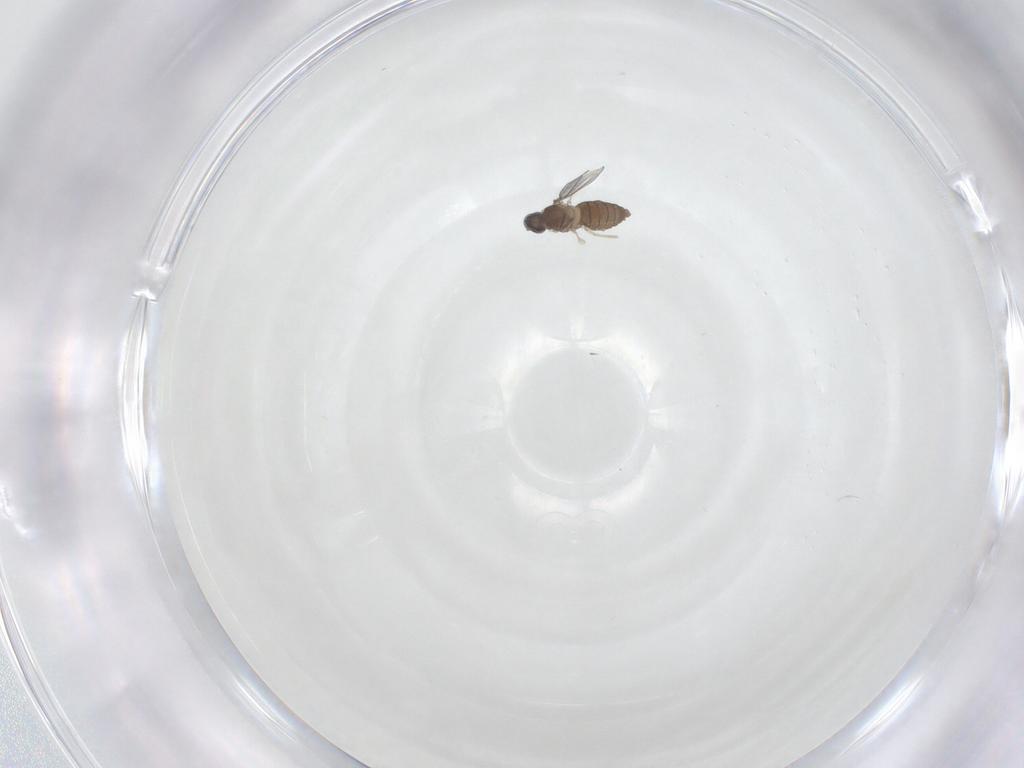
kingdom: Animalia
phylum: Arthropoda
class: Insecta
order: Diptera
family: Cecidomyiidae
